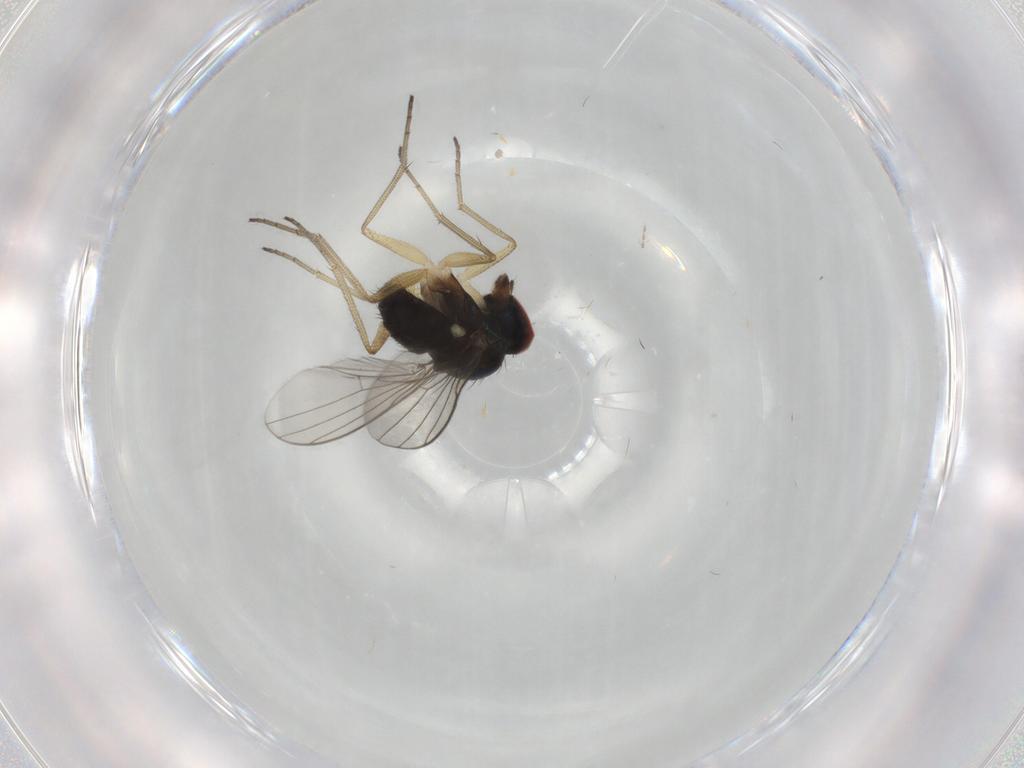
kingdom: Animalia
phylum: Arthropoda
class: Insecta
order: Diptera
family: Dolichopodidae
